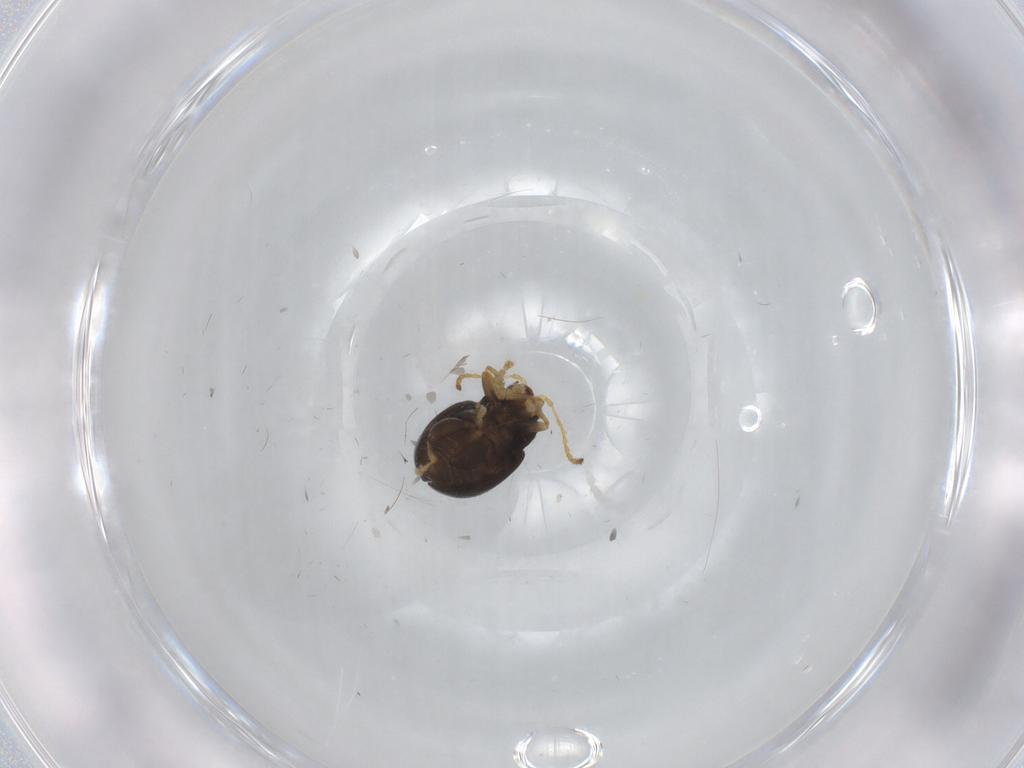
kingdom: Animalia
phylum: Arthropoda
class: Insecta
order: Coleoptera
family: Chrysomelidae
